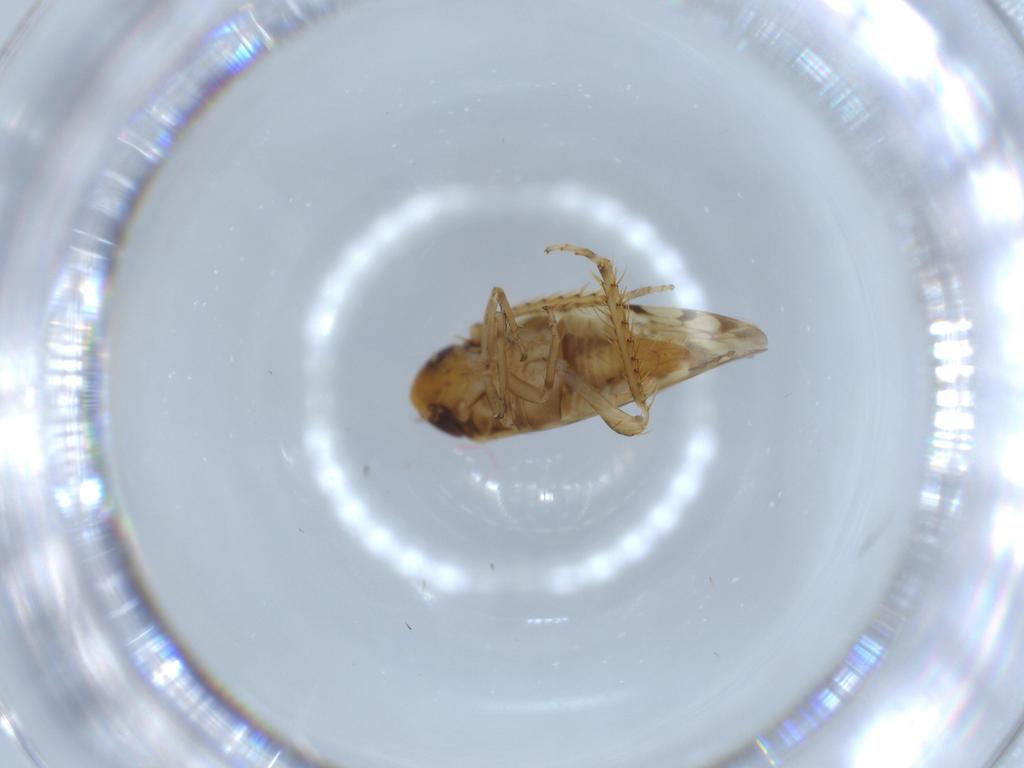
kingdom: Animalia
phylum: Arthropoda
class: Insecta
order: Hemiptera
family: Cicadellidae
